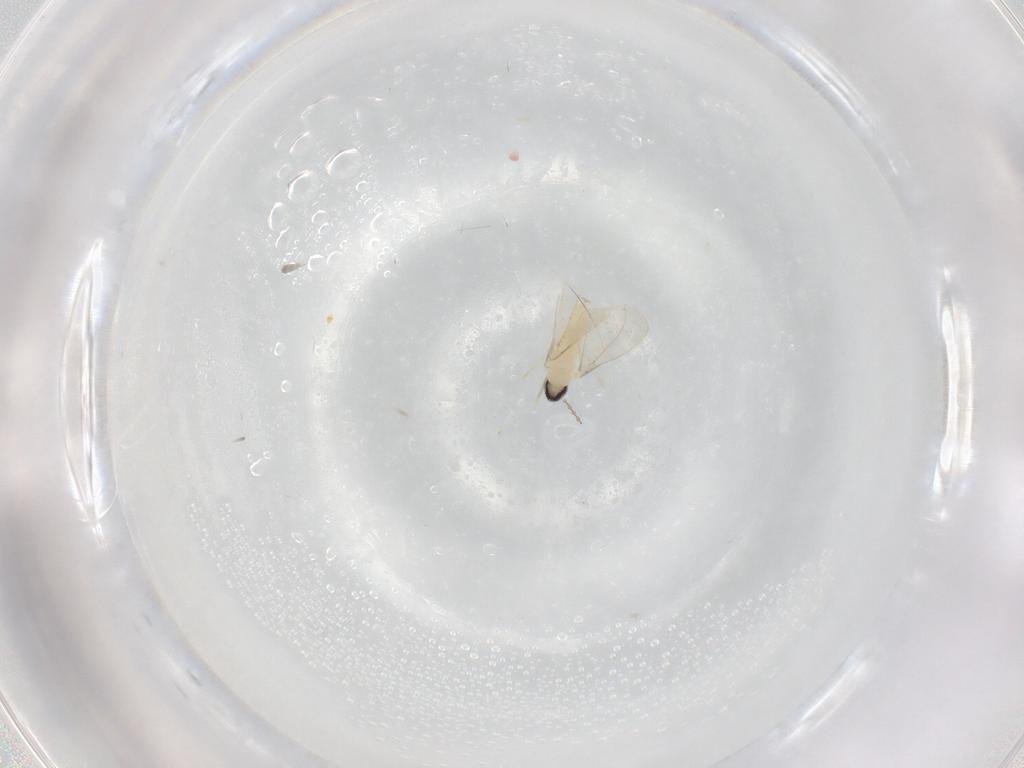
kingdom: Animalia
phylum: Arthropoda
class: Insecta
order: Diptera
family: Cecidomyiidae
